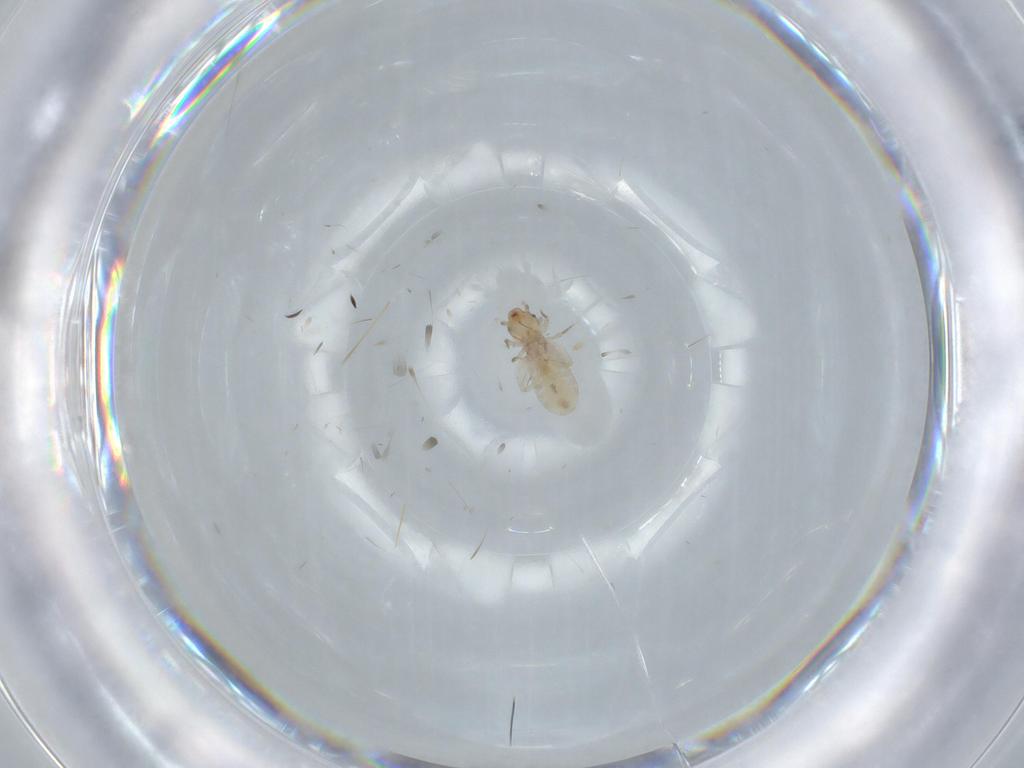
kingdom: Animalia
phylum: Arthropoda
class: Insecta
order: Psocodea
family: Liposcelididae
